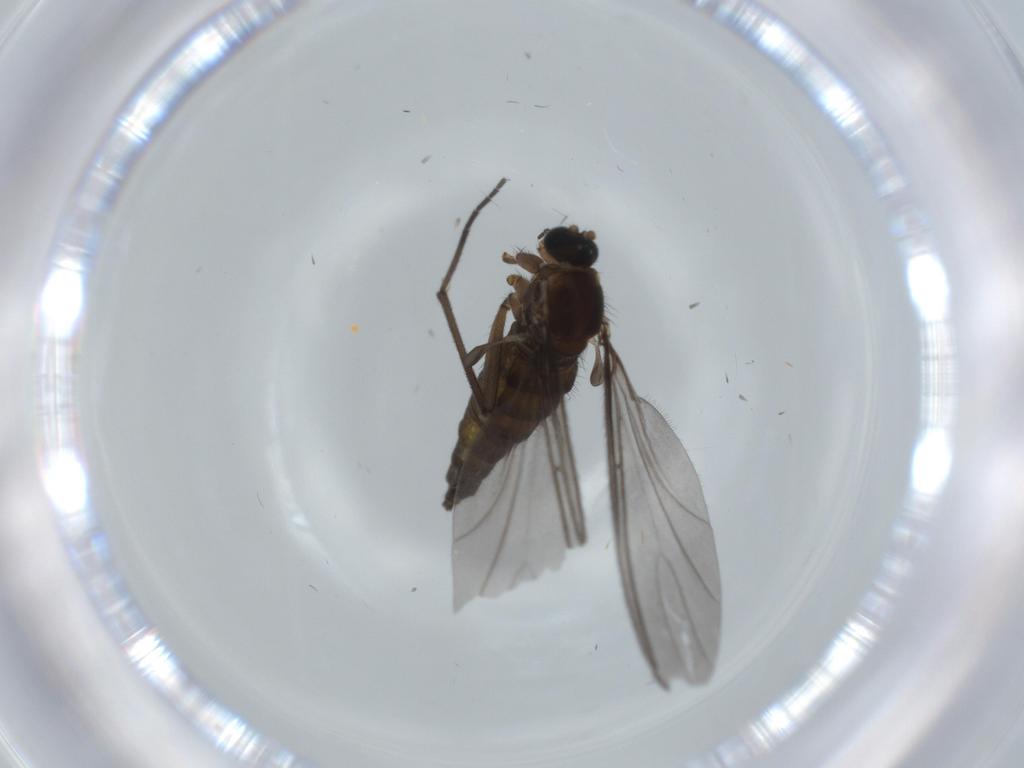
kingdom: Animalia
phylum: Arthropoda
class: Insecta
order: Diptera
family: Sciaridae
